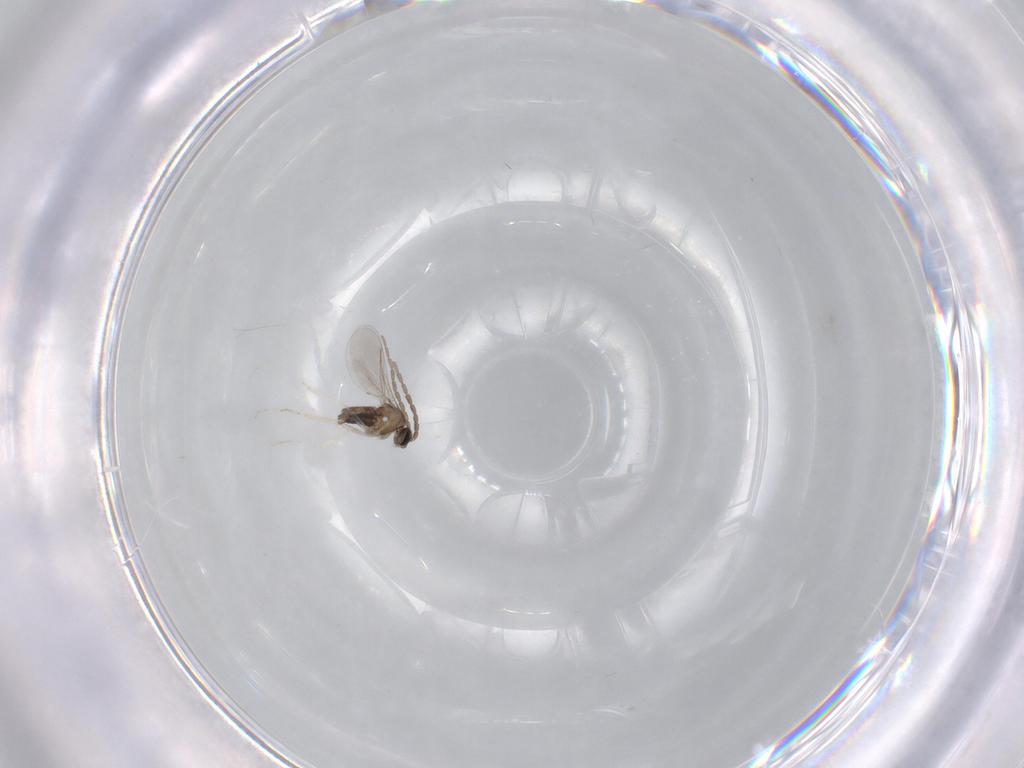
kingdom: Animalia
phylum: Arthropoda
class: Insecta
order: Diptera
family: Cecidomyiidae
